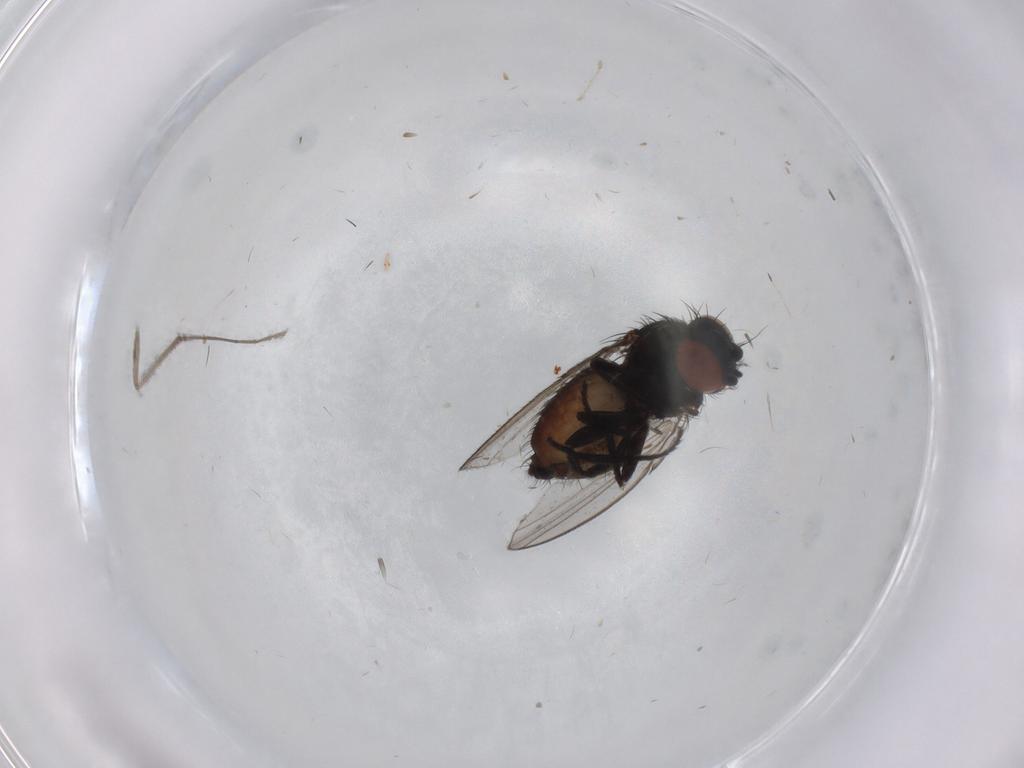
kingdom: Animalia
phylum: Arthropoda
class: Insecta
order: Diptera
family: Milichiidae
